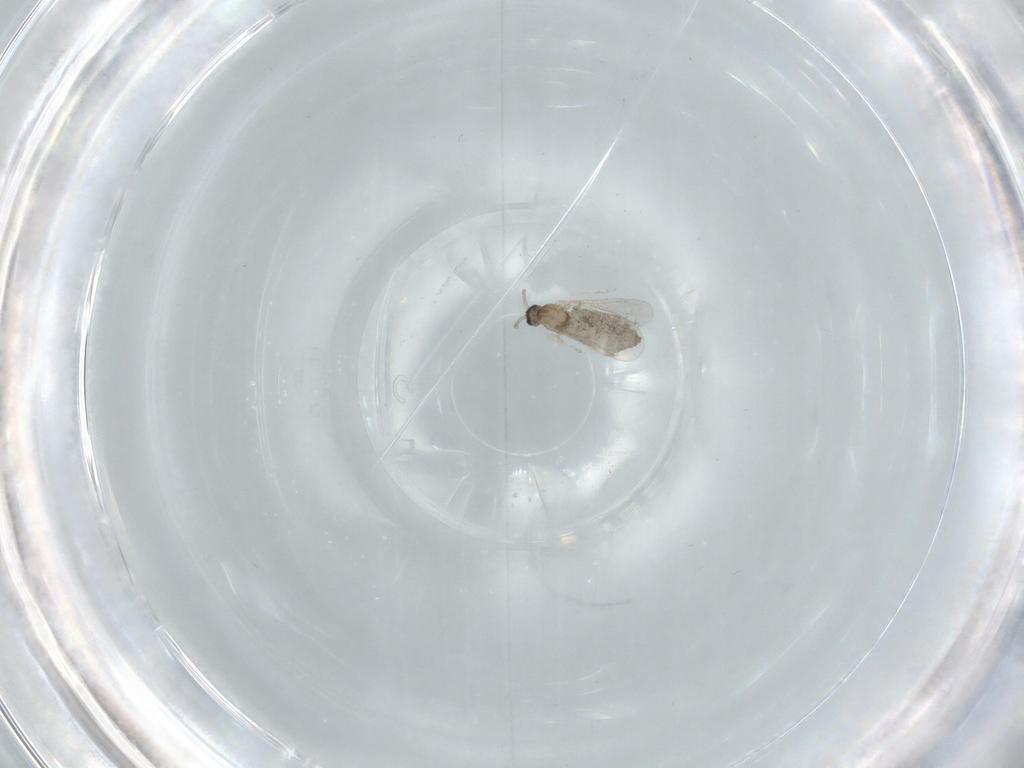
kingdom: Animalia
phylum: Arthropoda
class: Insecta
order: Diptera
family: Cecidomyiidae
